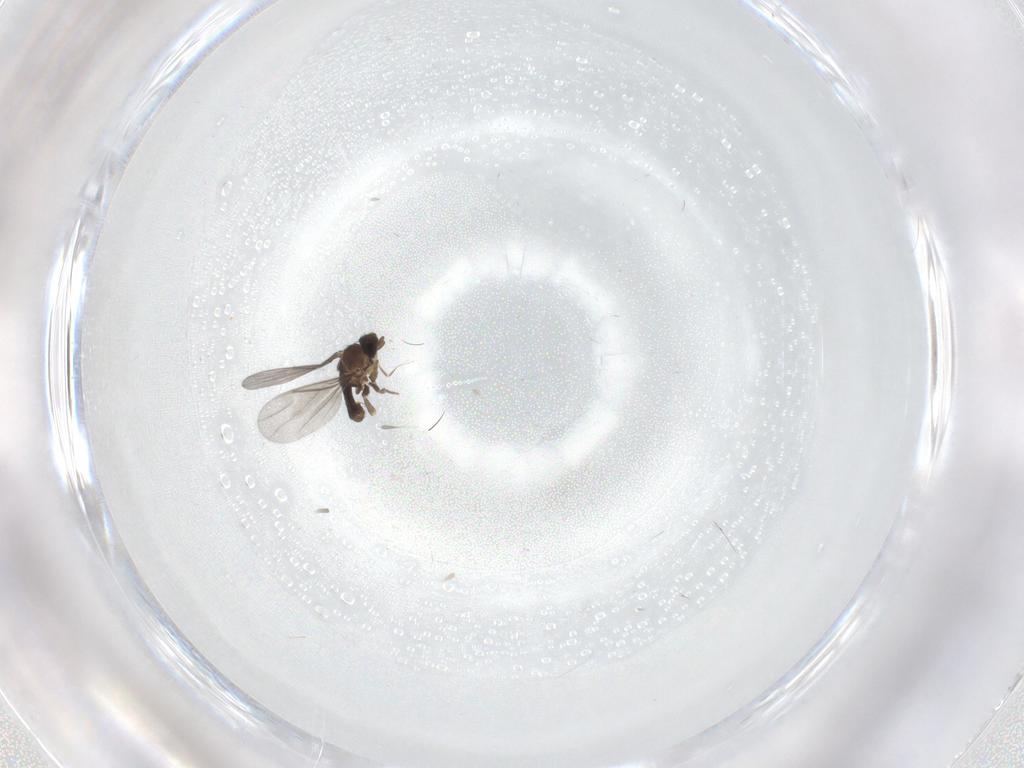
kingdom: Animalia
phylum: Arthropoda
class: Insecta
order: Diptera
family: Tabanidae
